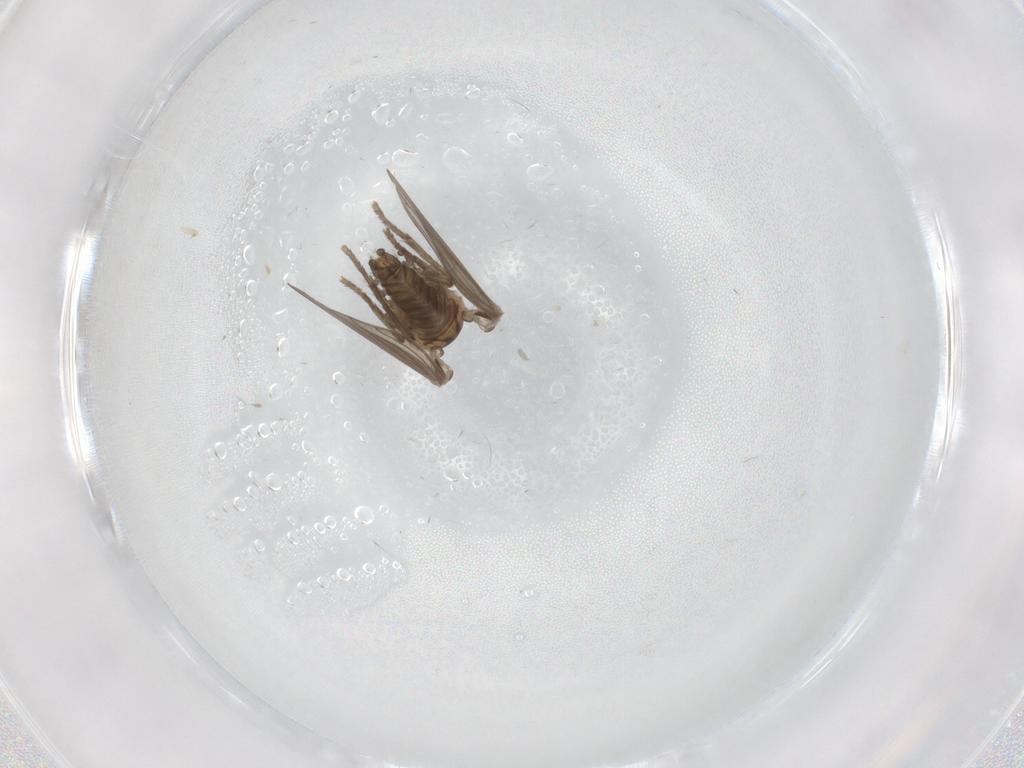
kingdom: Animalia
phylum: Arthropoda
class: Insecta
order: Diptera
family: Psychodidae
